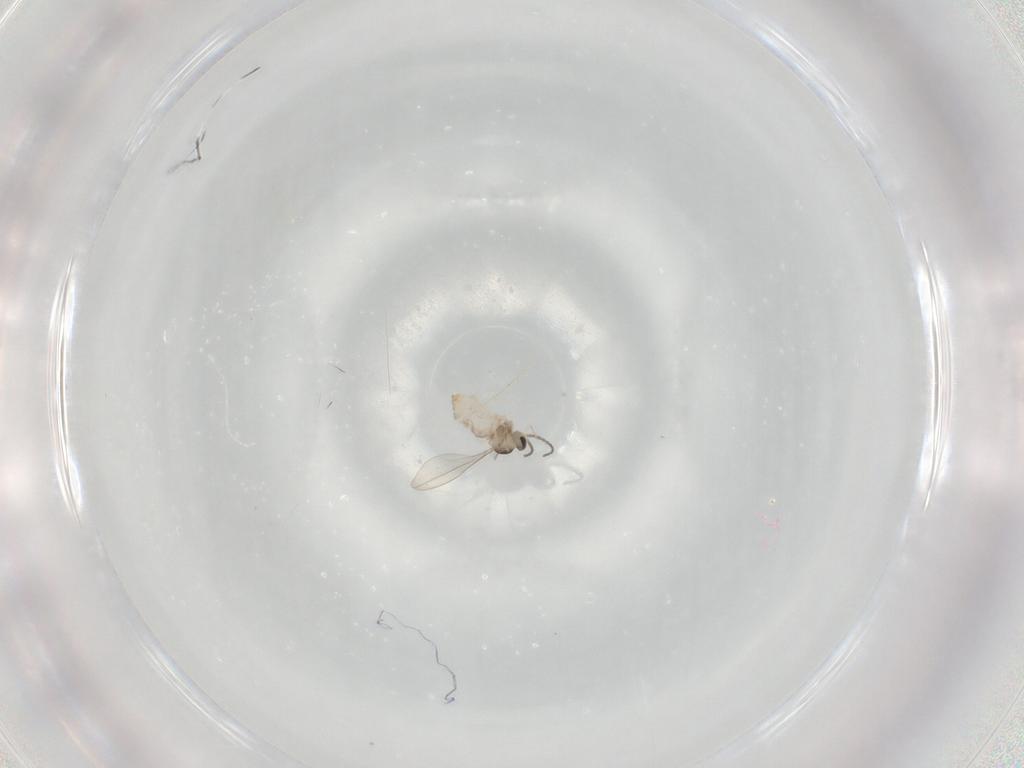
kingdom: Animalia
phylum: Arthropoda
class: Insecta
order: Diptera
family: Cecidomyiidae
